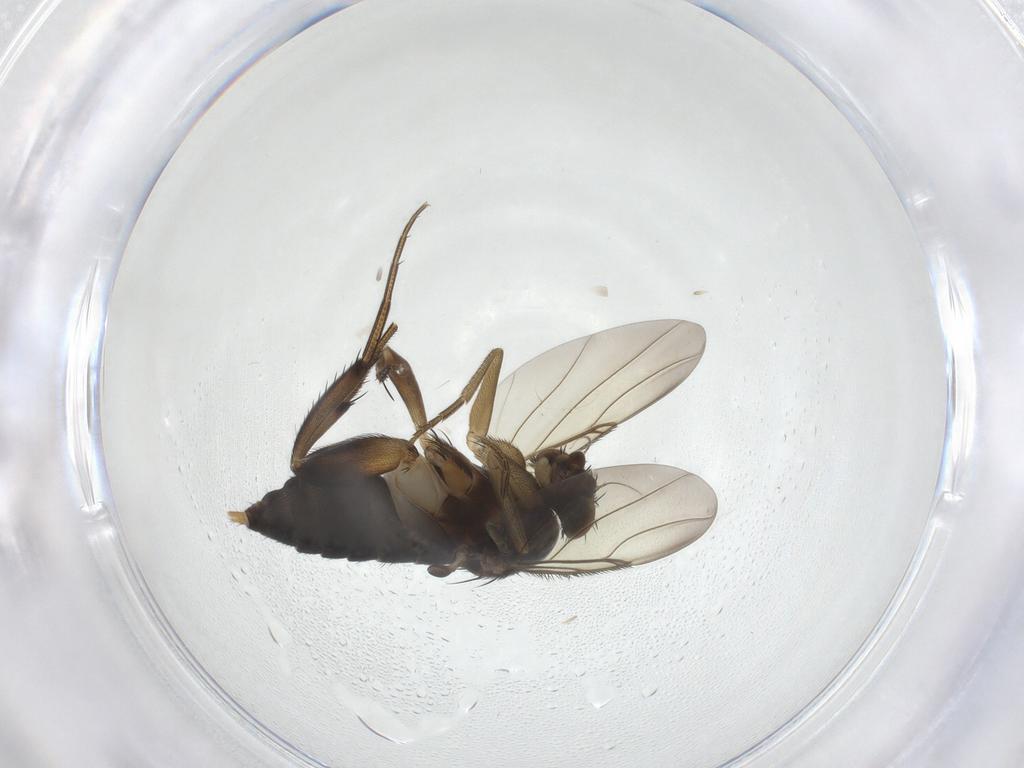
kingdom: Animalia
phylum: Arthropoda
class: Insecta
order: Diptera
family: Phoridae
